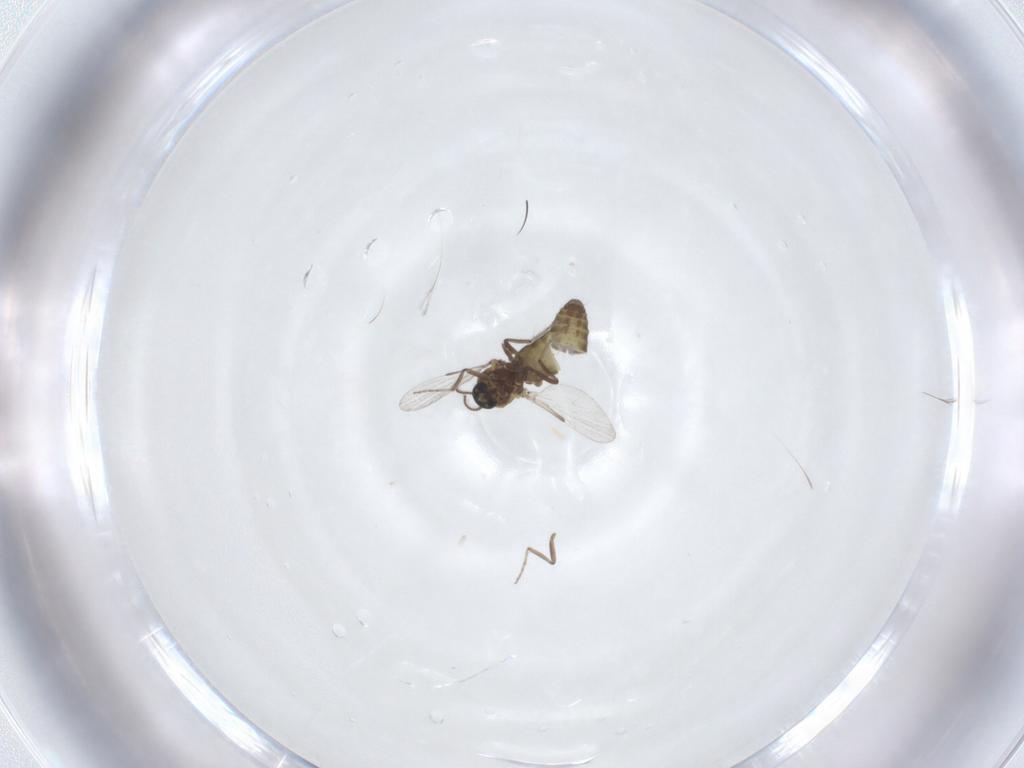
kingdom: Animalia
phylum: Arthropoda
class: Insecta
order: Diptera
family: Ceratopogonidae
